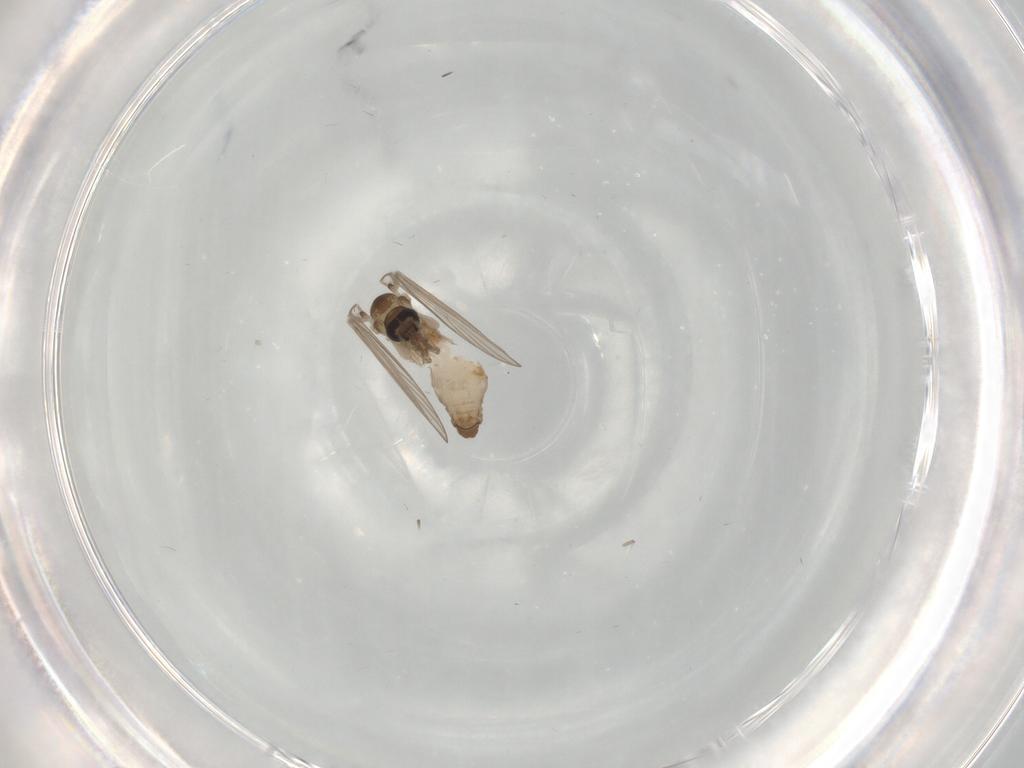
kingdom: Animalia
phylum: Arthropoda
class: Insecta
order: Diptera
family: Psychodidae
